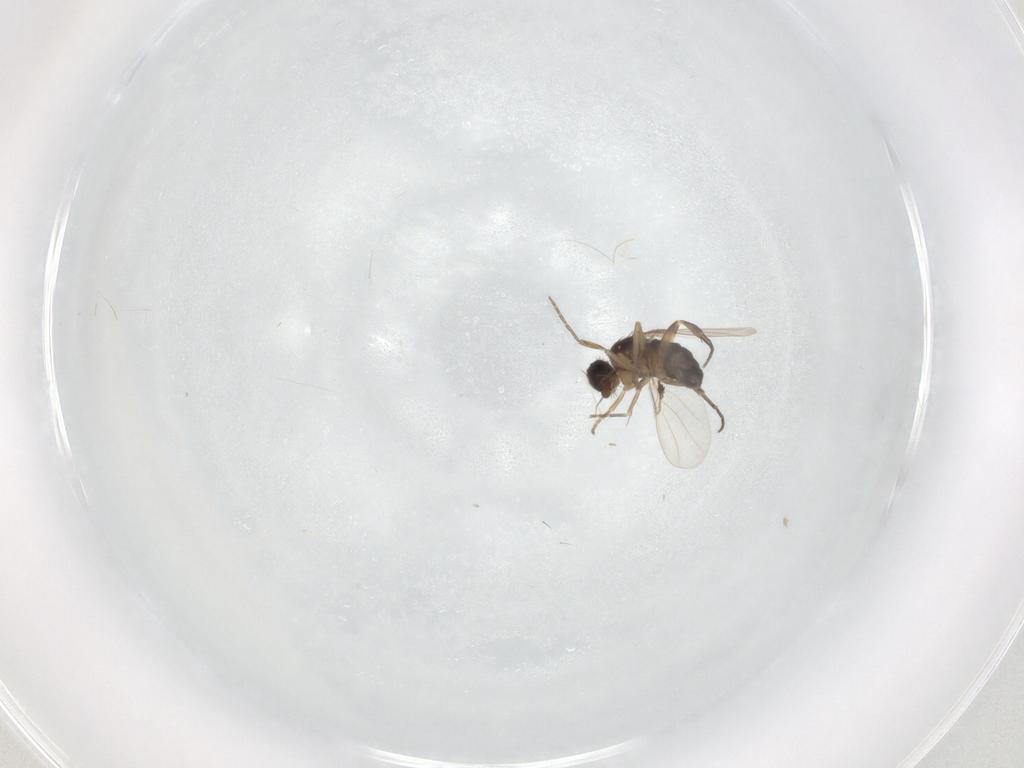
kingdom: Animalia
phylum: Arthropoda
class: Insecta
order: Diptera
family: Phoridae
